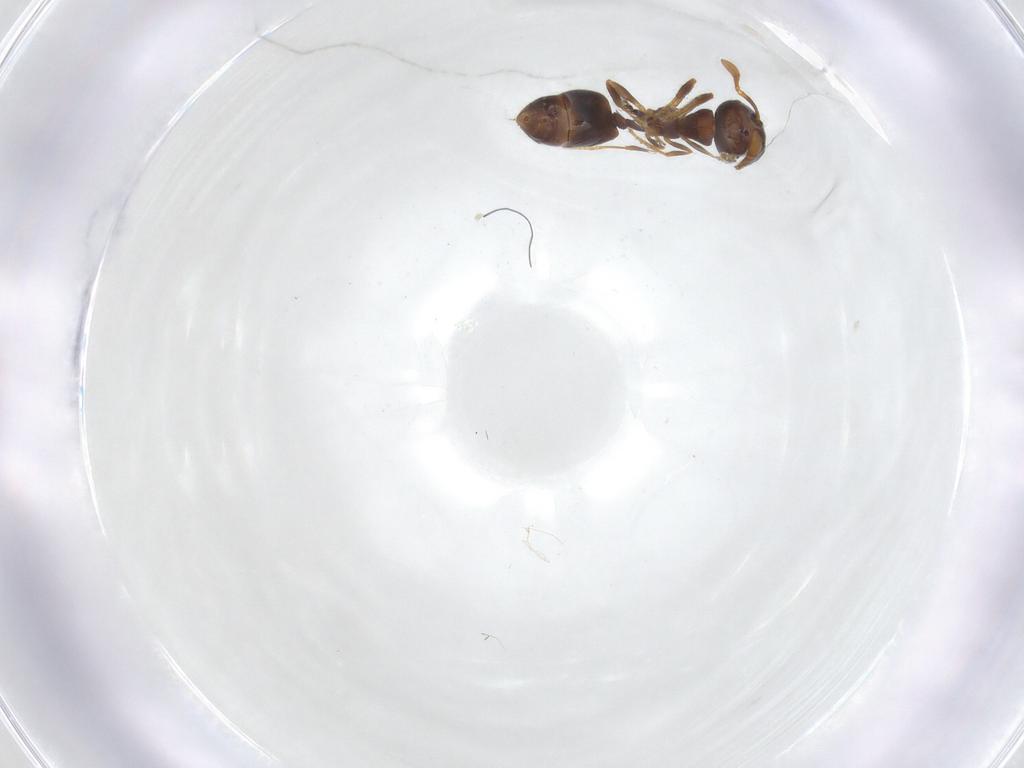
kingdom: Animalia
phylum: Arthropoda
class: Insecta
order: Hymenoptera
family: Formicidae
